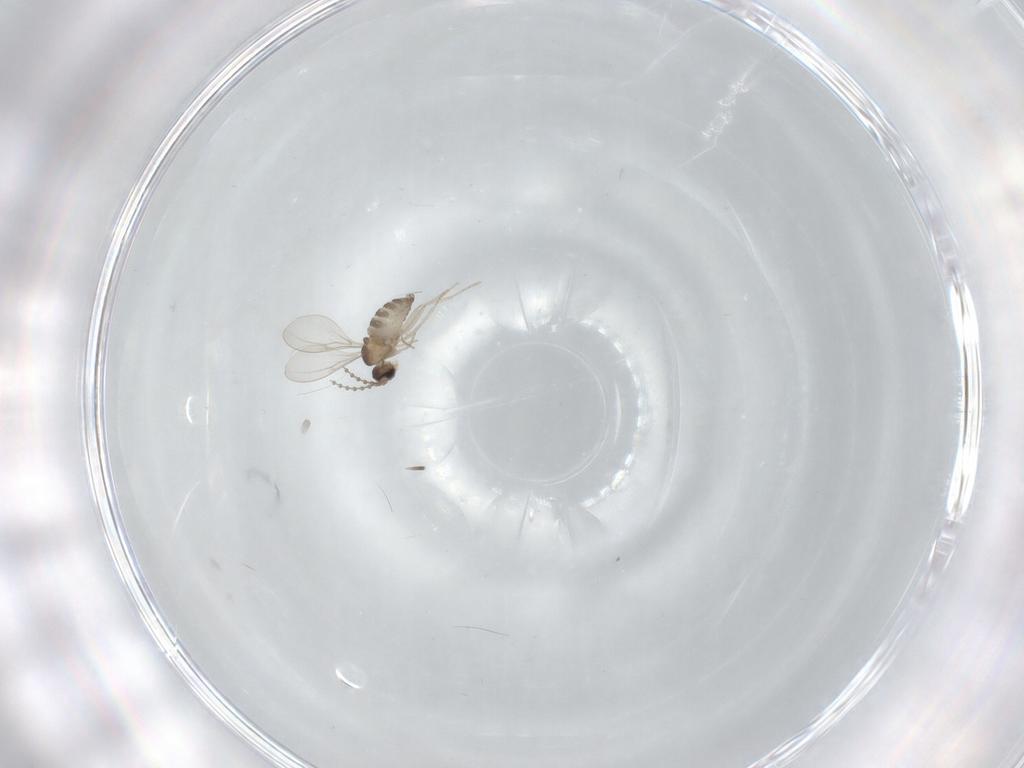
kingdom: Animalia
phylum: Arthropoda
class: Insecta
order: Diptera
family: Cecidomyiidae
